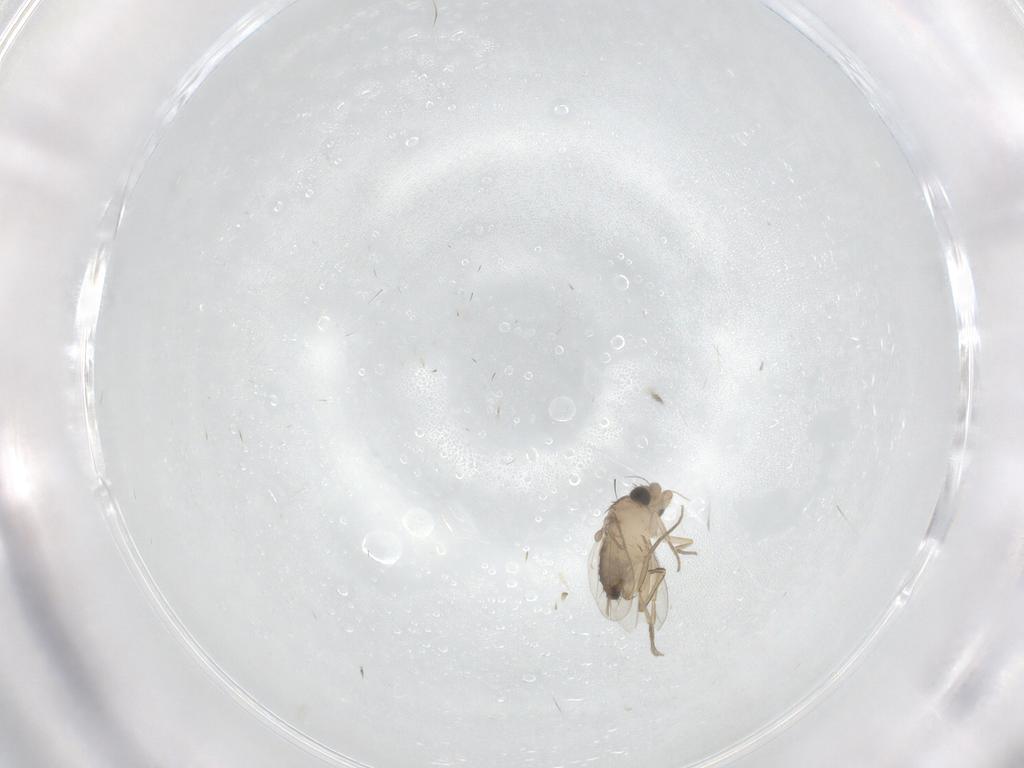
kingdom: Animalia
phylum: Arthropoda
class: Insecta
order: Diptera
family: Phoridae
